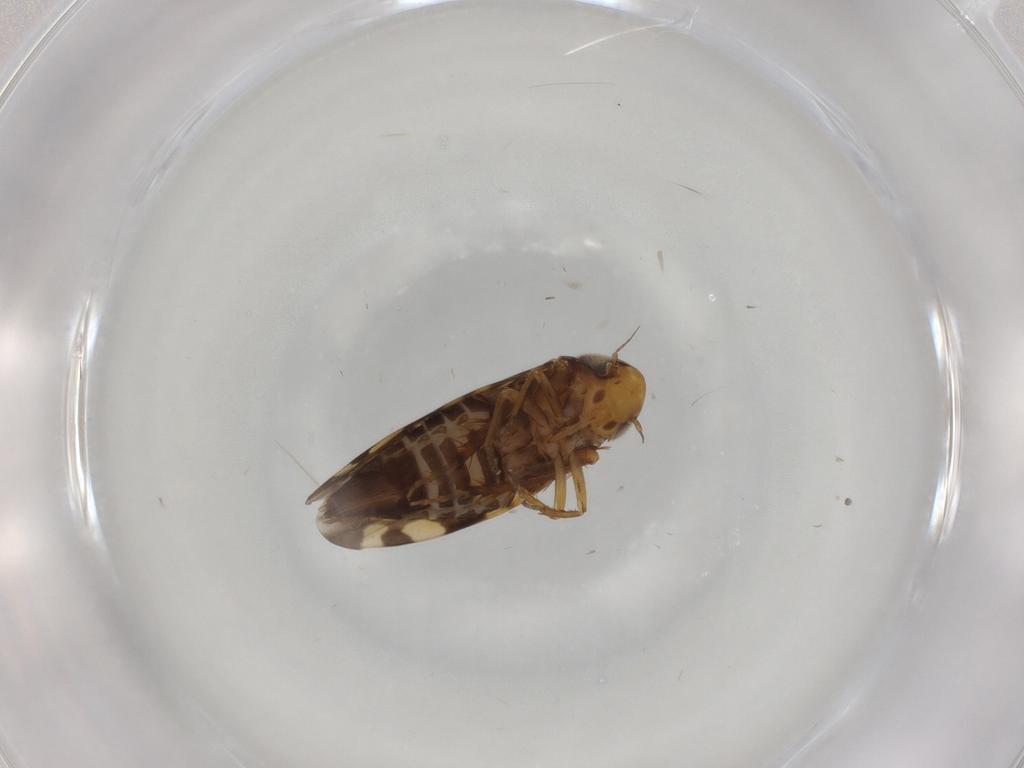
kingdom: Animalia
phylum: Arthropoda
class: Insecta
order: Hemiptera
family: Cicadellidae
